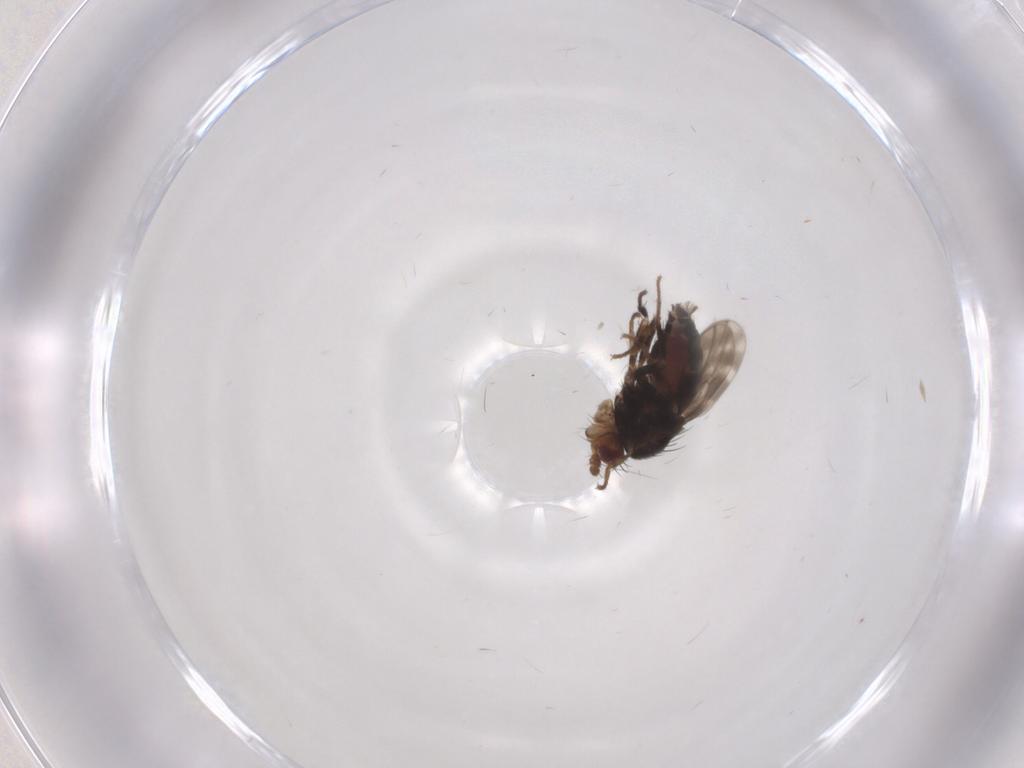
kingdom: Animalia
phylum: Arthropoda
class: Insecta
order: Diptera
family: Sphaeroceridae
